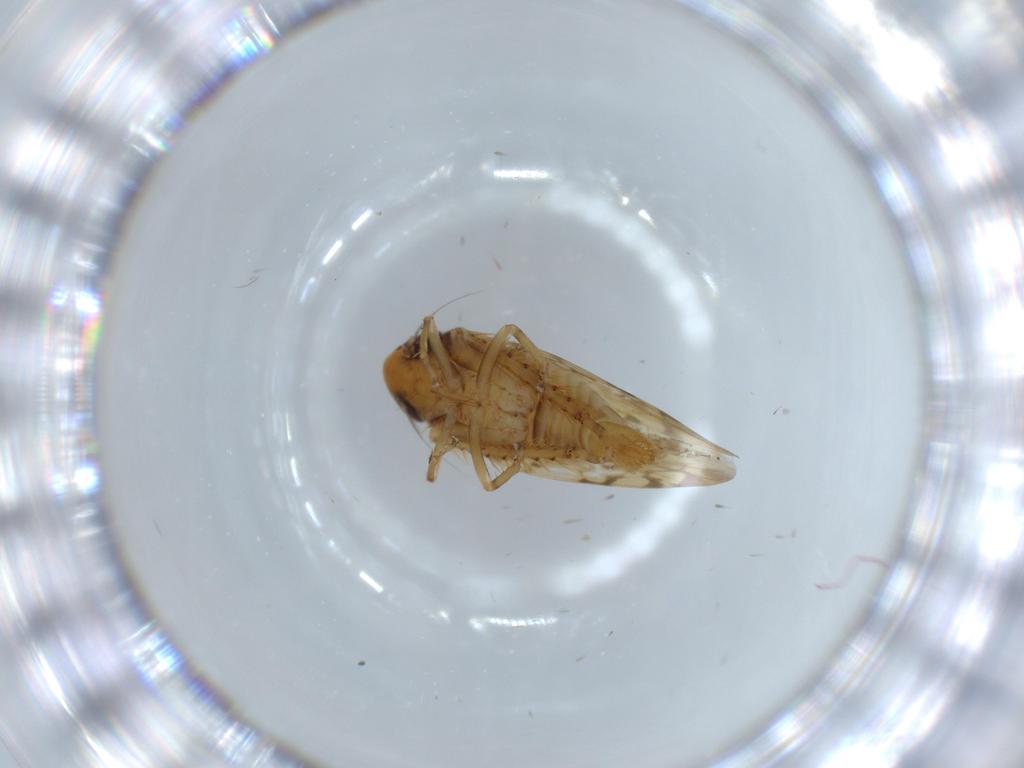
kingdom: Animalia
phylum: Arthropoda
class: Insecta
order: Hemiptera
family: Cicadellidae
